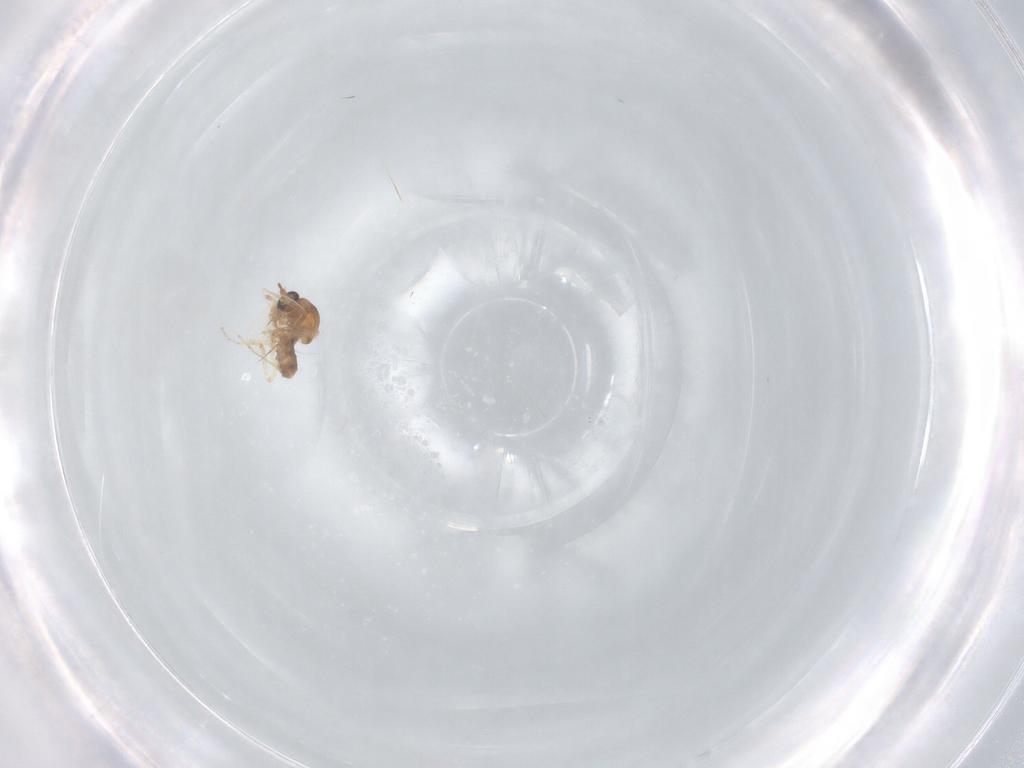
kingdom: Animalia
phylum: Arthropoda
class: Insecta
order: Diptera
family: Ceratopogonidae
